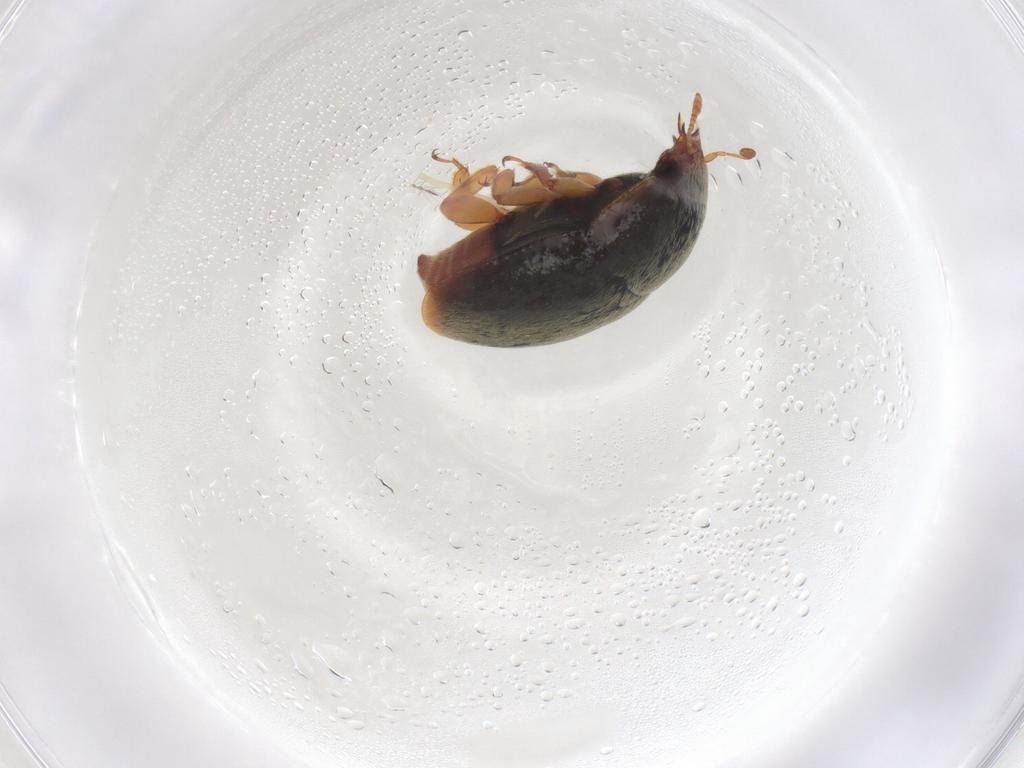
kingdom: Animalia
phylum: Arthropoda
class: Insecta
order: Coleoptera
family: Nitidulidae
